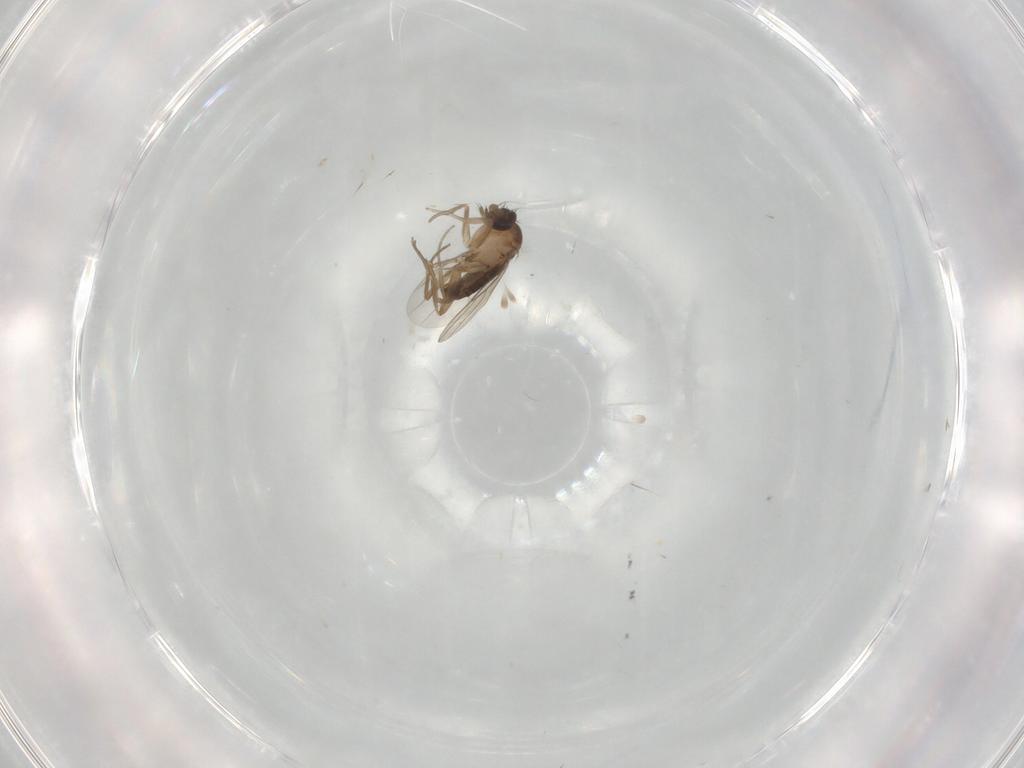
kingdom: Animalia
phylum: Arthropoda
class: Insecta
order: Diptera
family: Phoridae
